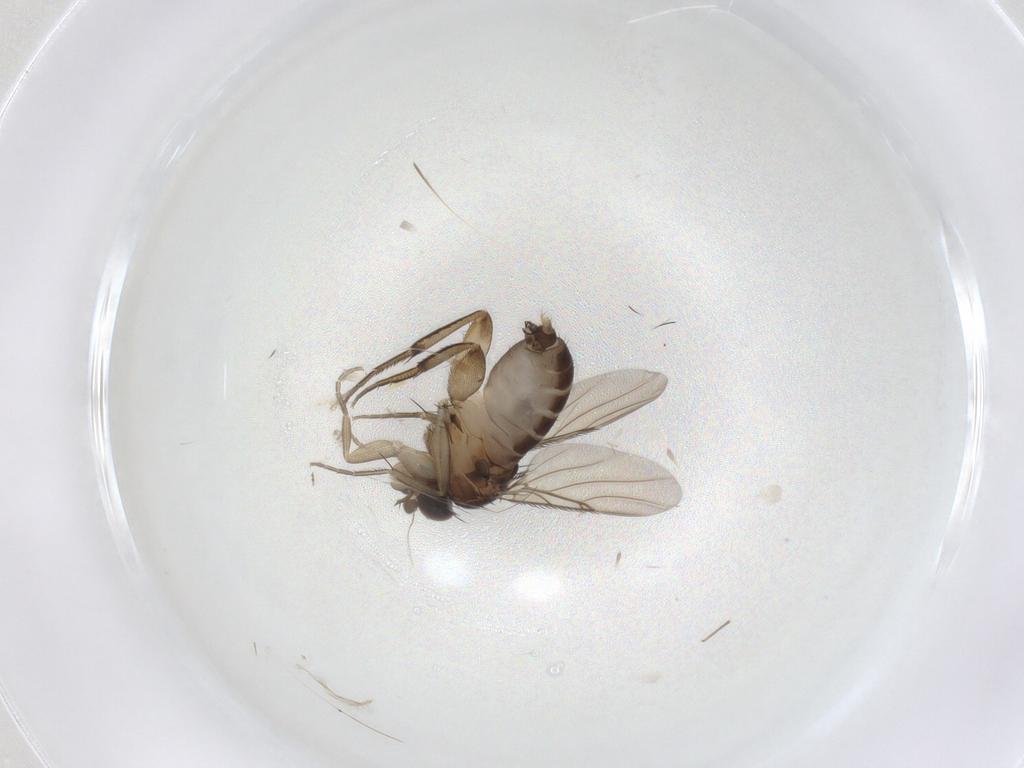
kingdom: Animalia
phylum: Arthropoda
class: Insecta
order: Diptera
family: Phoridae
